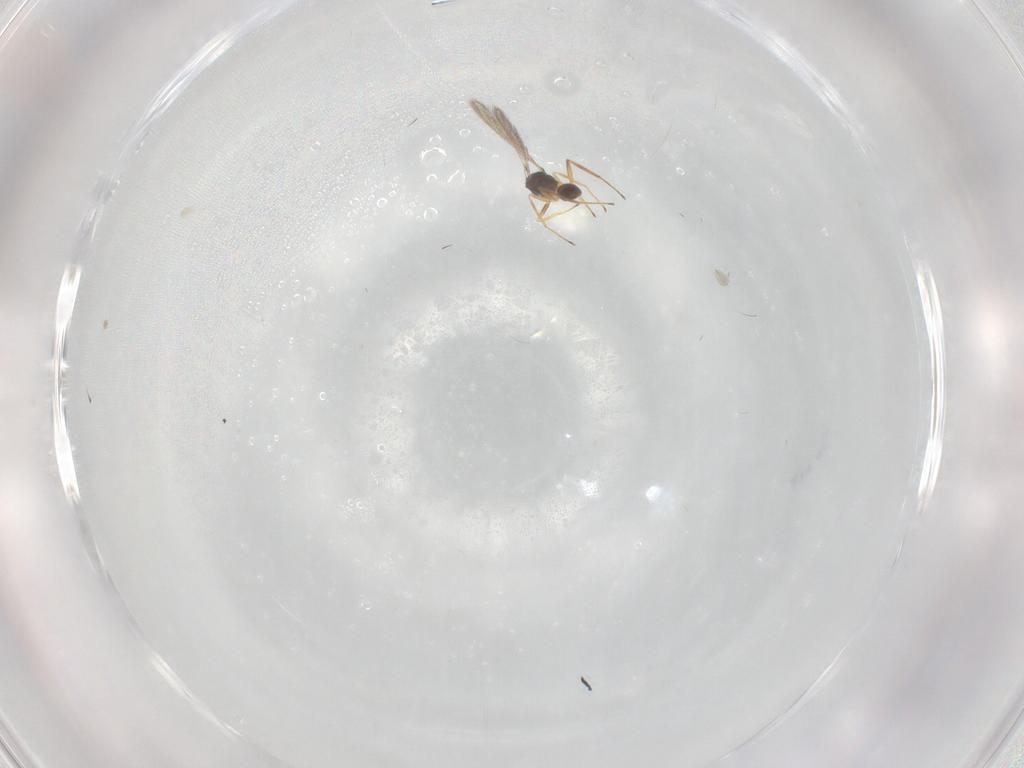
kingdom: Animalia
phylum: Arthropoda
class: Insecta
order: Hymenoptera
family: Mymaridae
